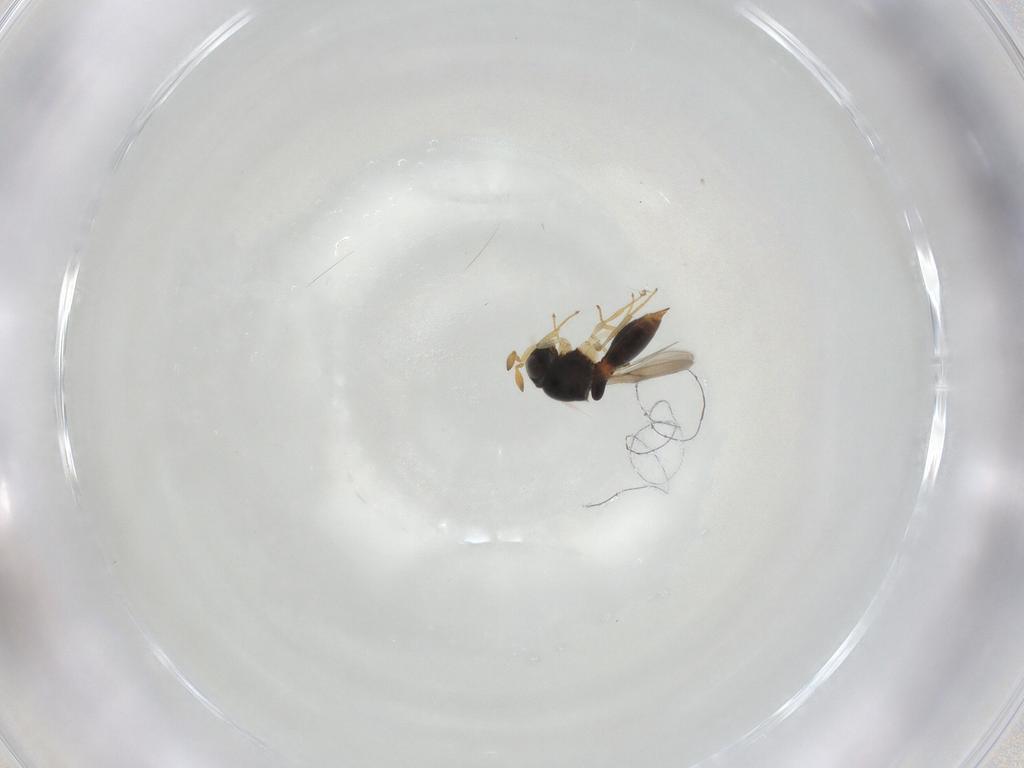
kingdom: Animalia
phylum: Arthropoda
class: Insecta
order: Hymenoptera
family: Scelionidae
